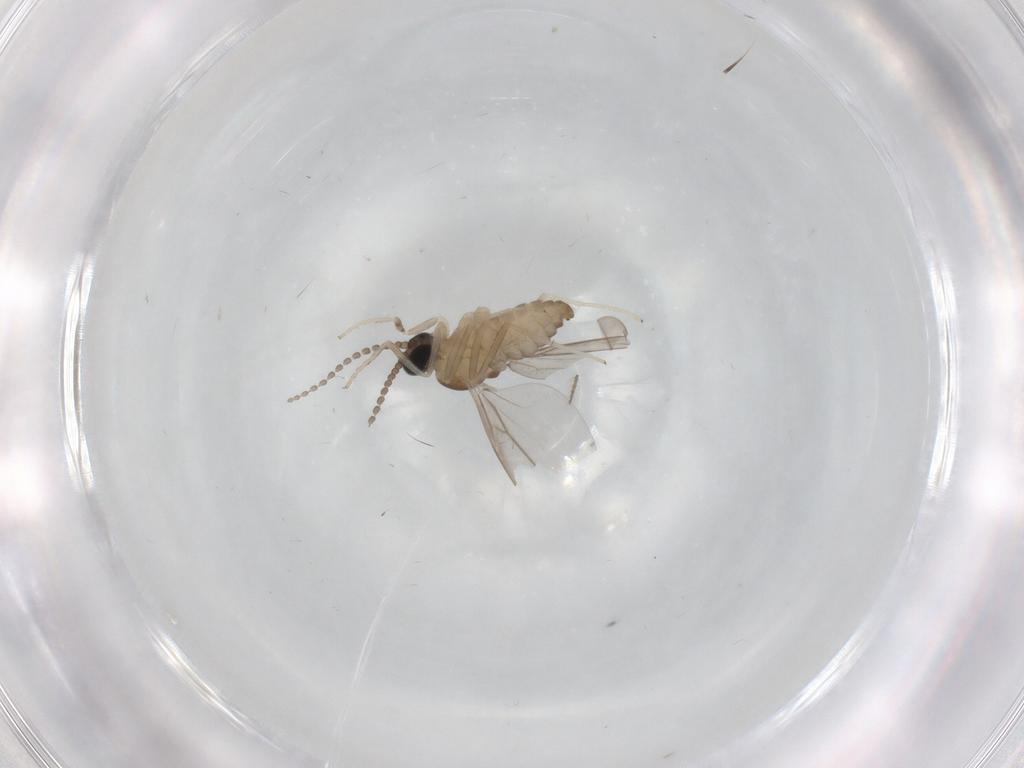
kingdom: Animalia
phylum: Arthropoda
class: Insecta
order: Diptera
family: Cecidomyiidae
